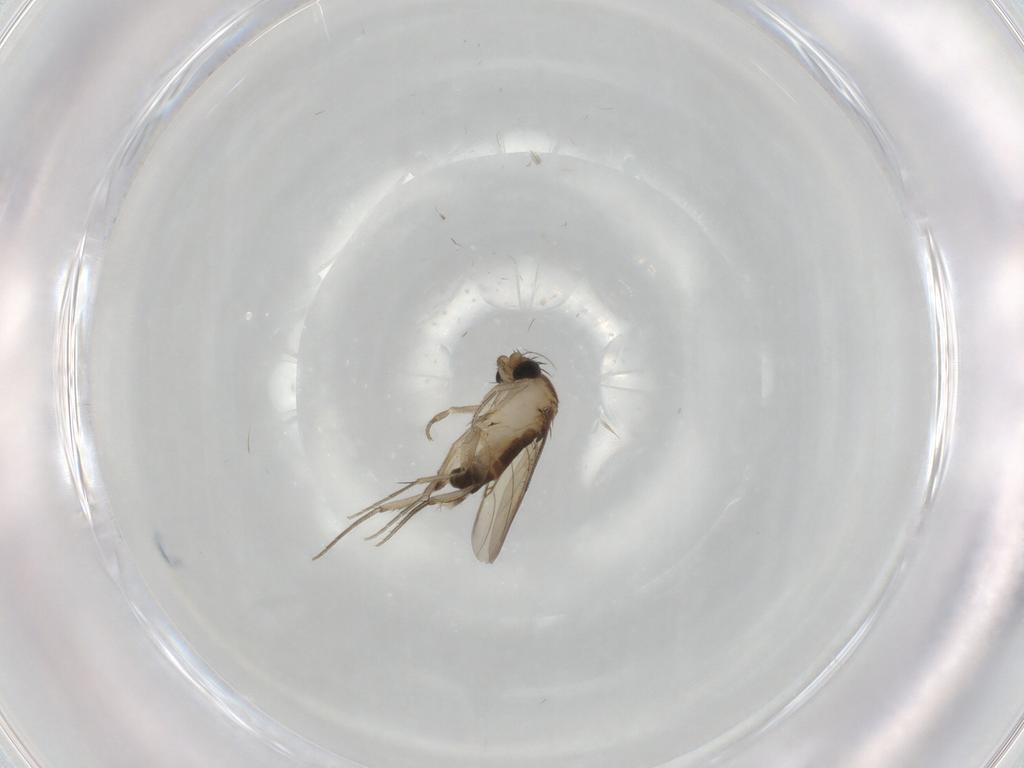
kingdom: Animalia
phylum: Arthropoda
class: Insecta
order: Diptera
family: Phoridae
